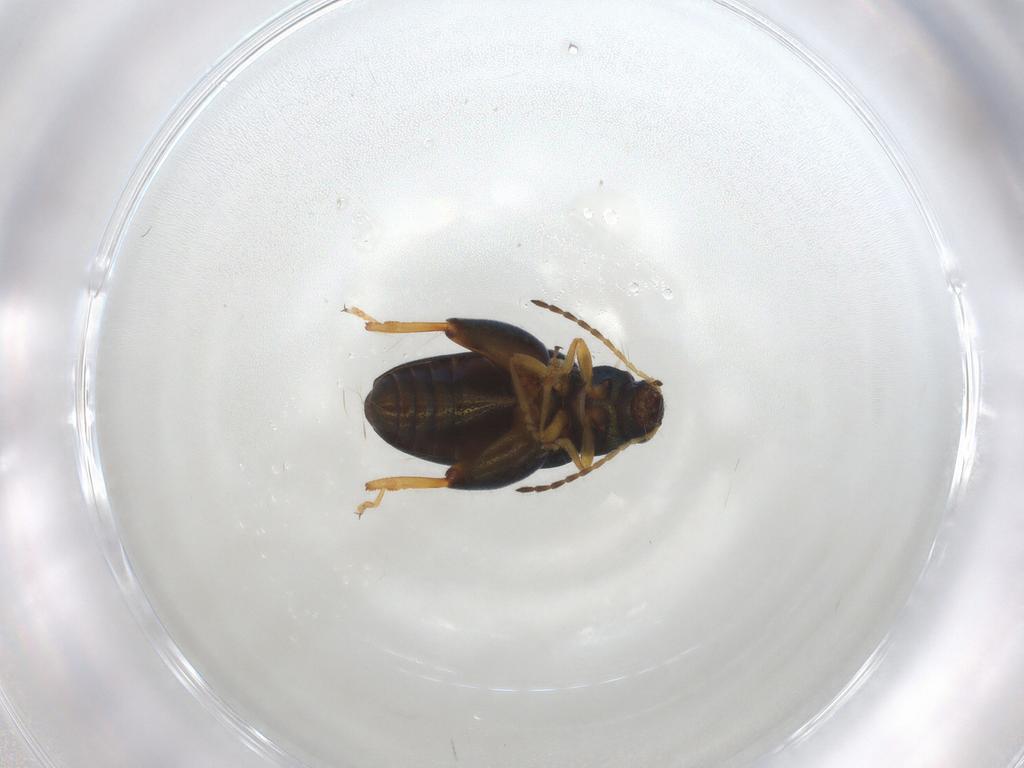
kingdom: Animalia
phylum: Arthropoda
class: Insecta
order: Coleoptera
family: Chrysomelidae
